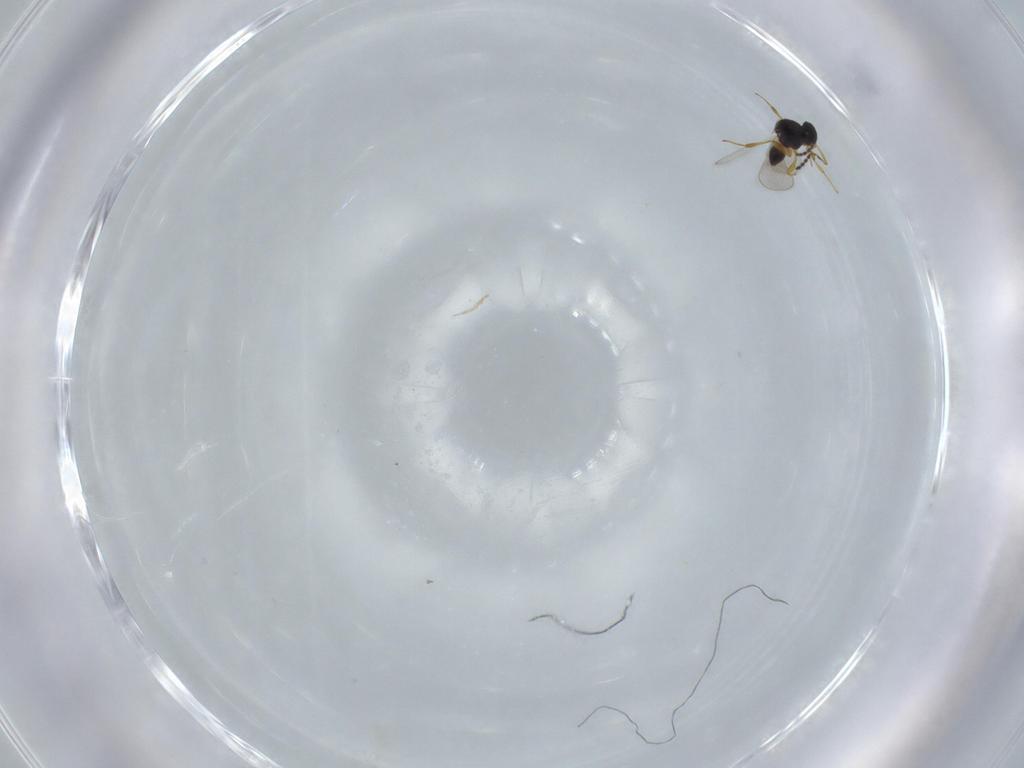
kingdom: Animalia
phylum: Arthropoda
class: Insecta
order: Hymenoptera
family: Platygastridae
